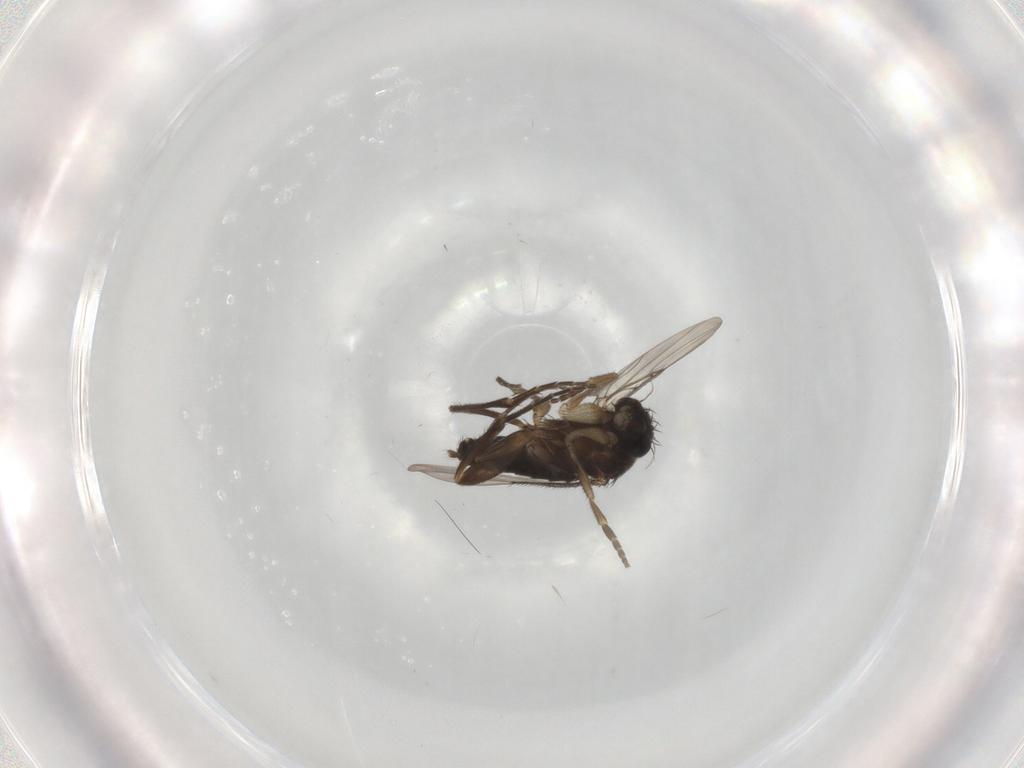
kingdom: Animalia
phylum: Arthropoda
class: Insecta
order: Diptera
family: Phoridae
